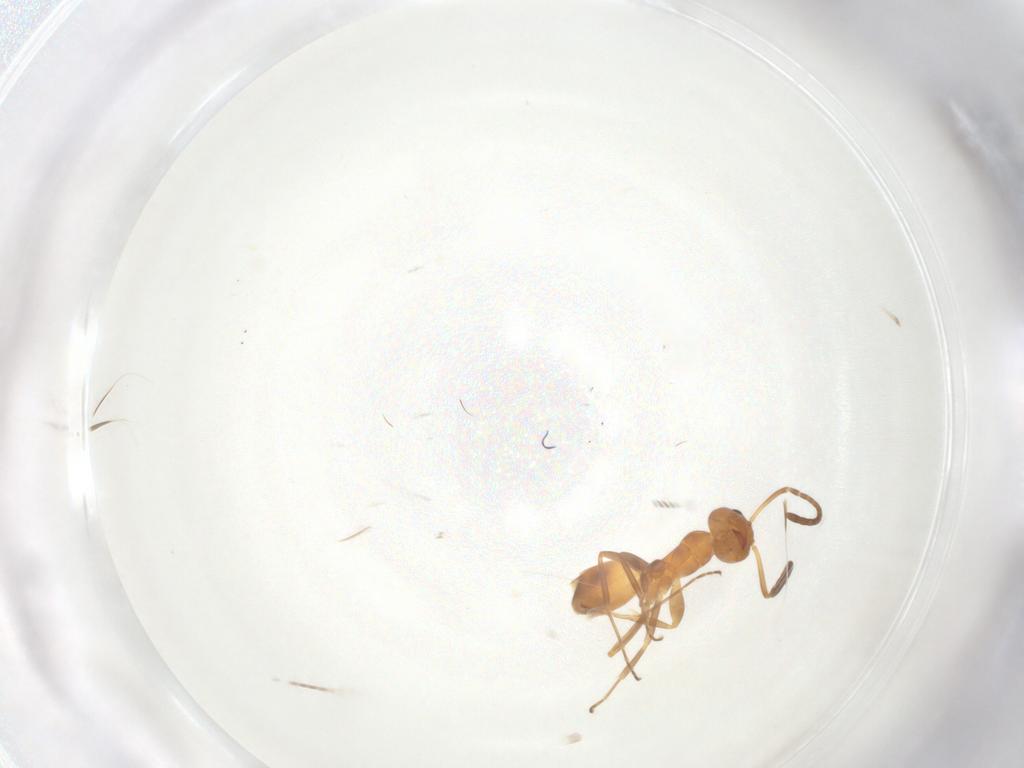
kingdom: Animalia
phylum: Arthropoda
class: Insecta
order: Hymenoptera
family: Formicidae
